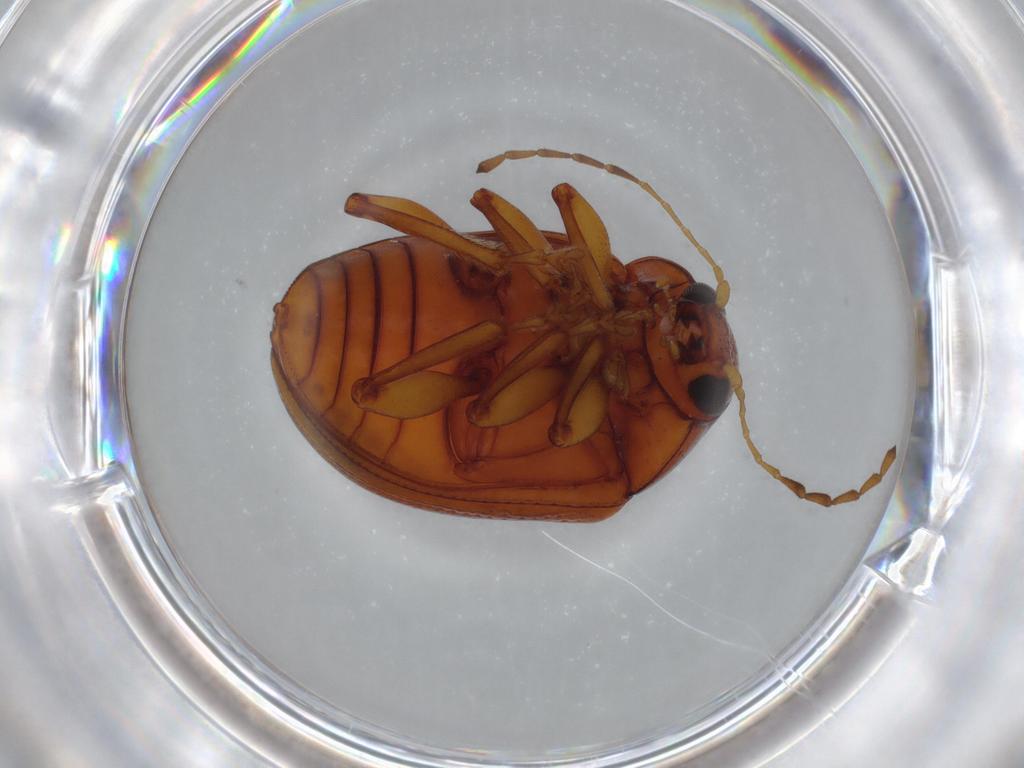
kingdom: Animalia
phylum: Arthropoda
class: Insecta
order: Coleoptera
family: Chrysomelidae
